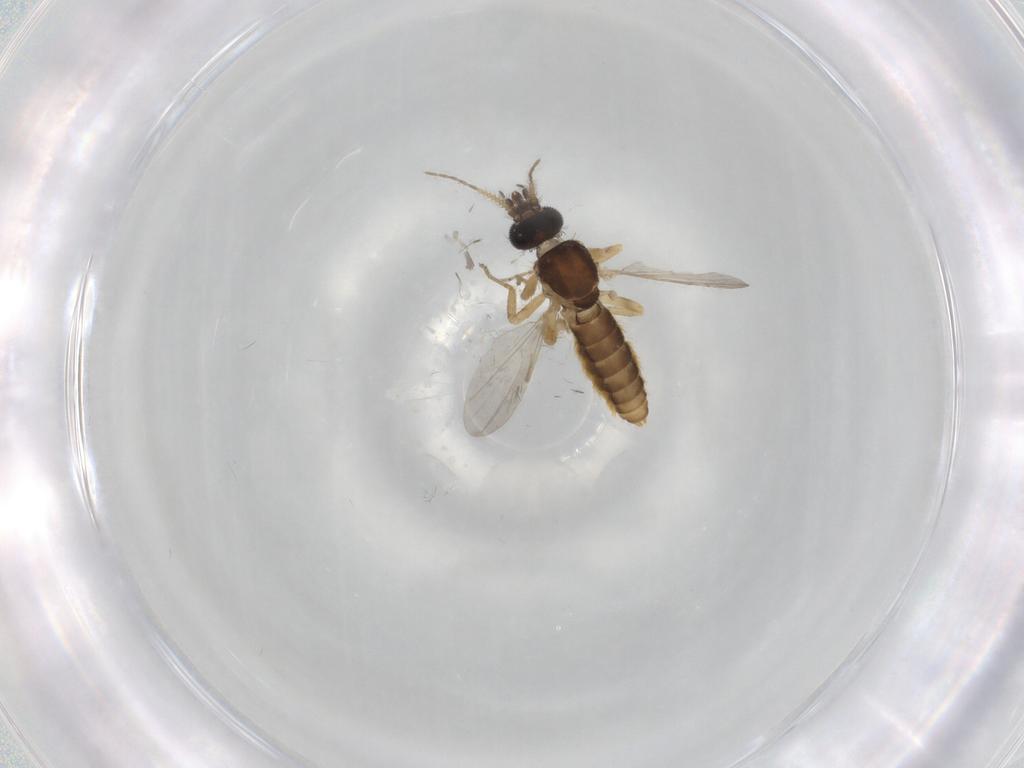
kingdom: Animalia
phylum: Arthropoda
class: Insecta
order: Diptera
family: Ceratopogonidae
